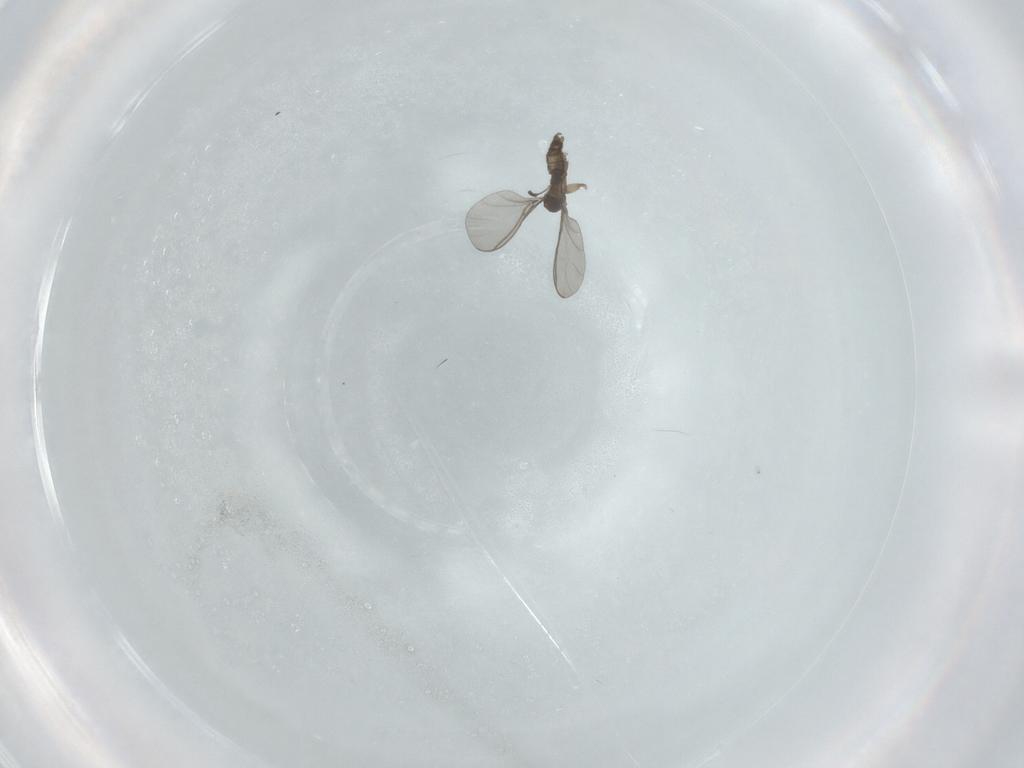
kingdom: Animalia
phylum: Arthropoda
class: Insecta
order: Diptera
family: Sciaridae
